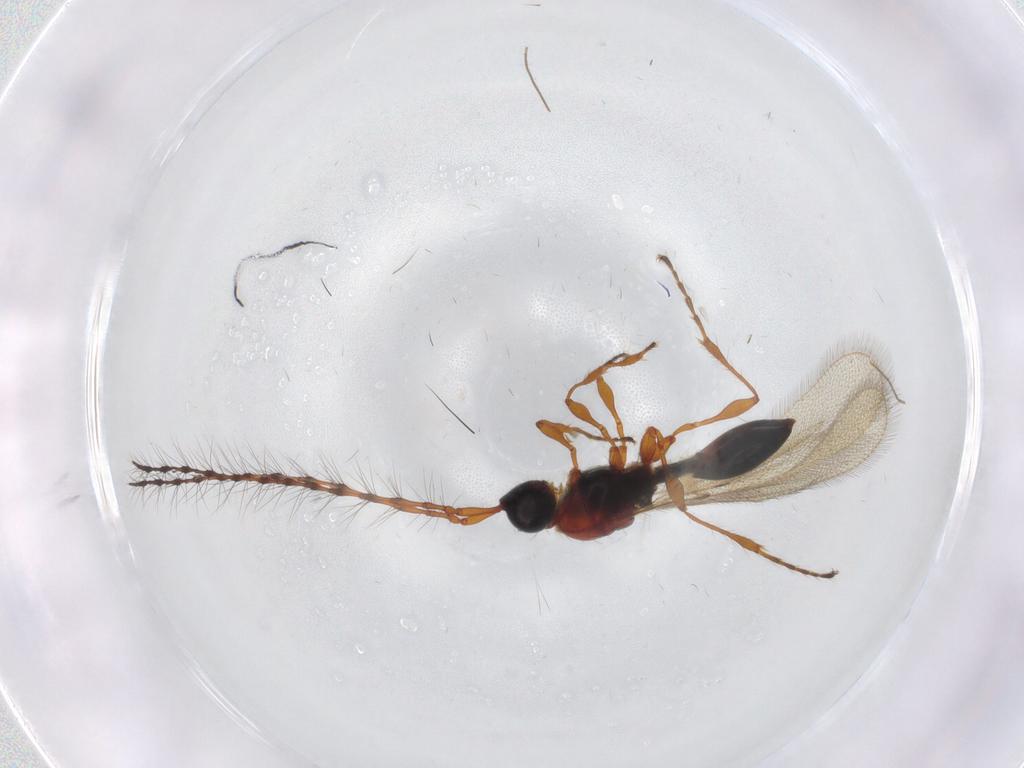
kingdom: Animalia
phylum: Arthropoda
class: Insecta
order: Hymenoptera
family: Diapriidae
